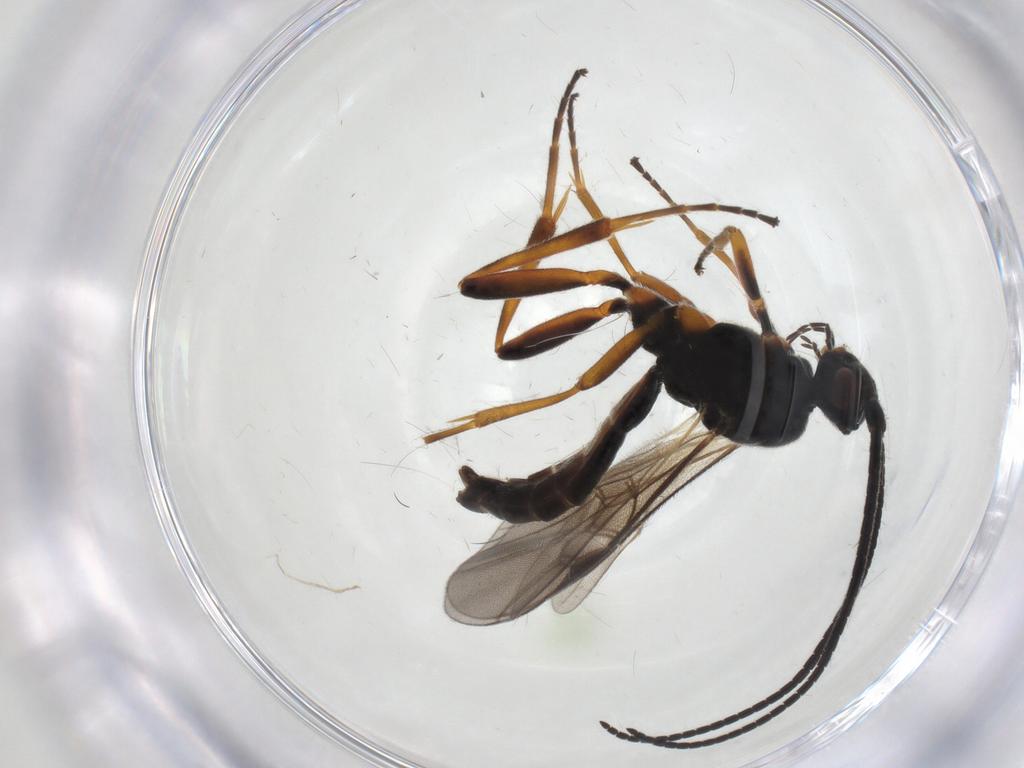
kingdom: Animalia
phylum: Arthropoda
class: Insecta
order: Hymenoptera
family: Braconidae
